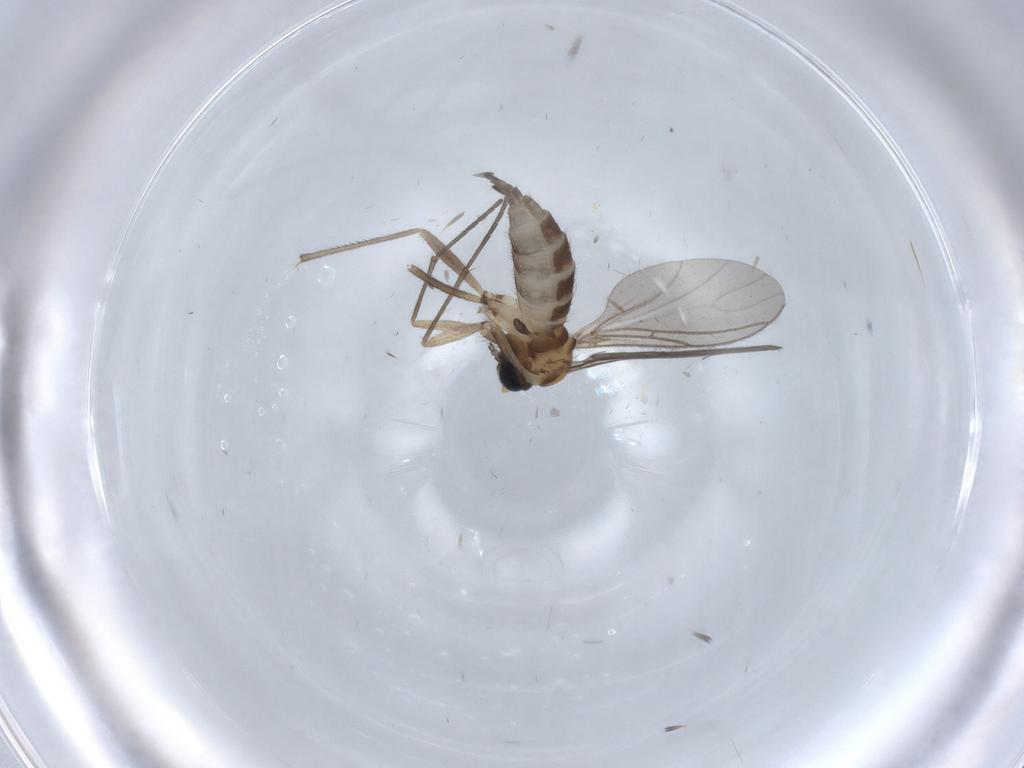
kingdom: Animalia
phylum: Arthropoda
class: Insecta
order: Diptera
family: Sciaridae
